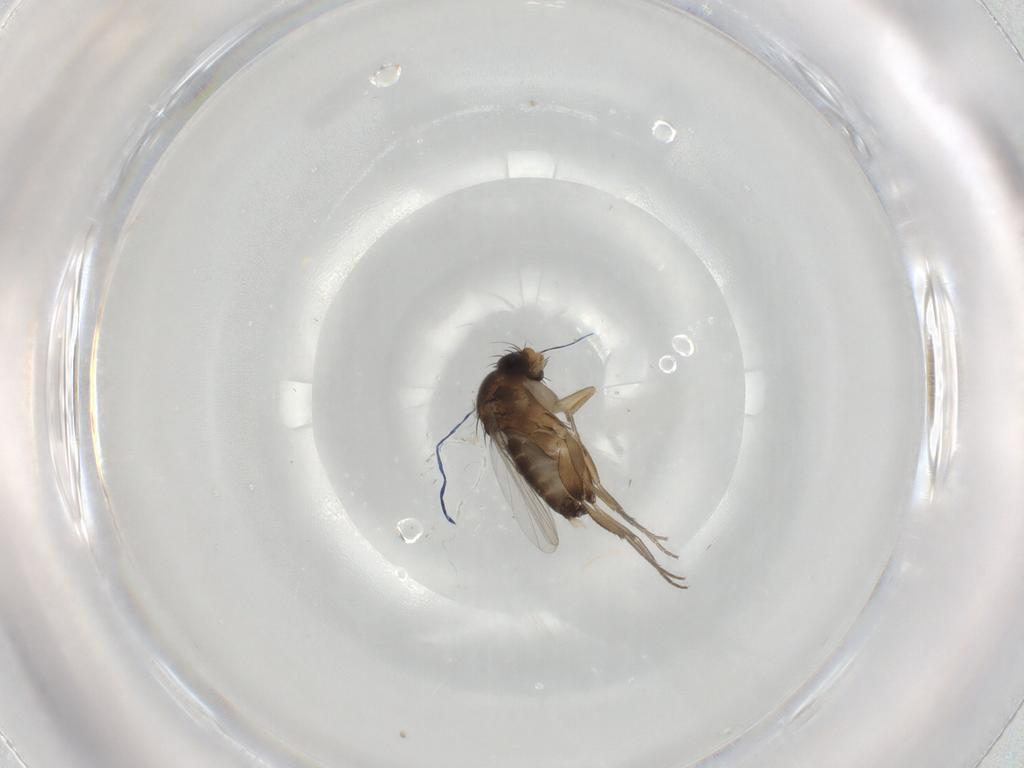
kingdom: Animalia
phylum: Arthropoda
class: Insecta
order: Diptera
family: Phoridae
